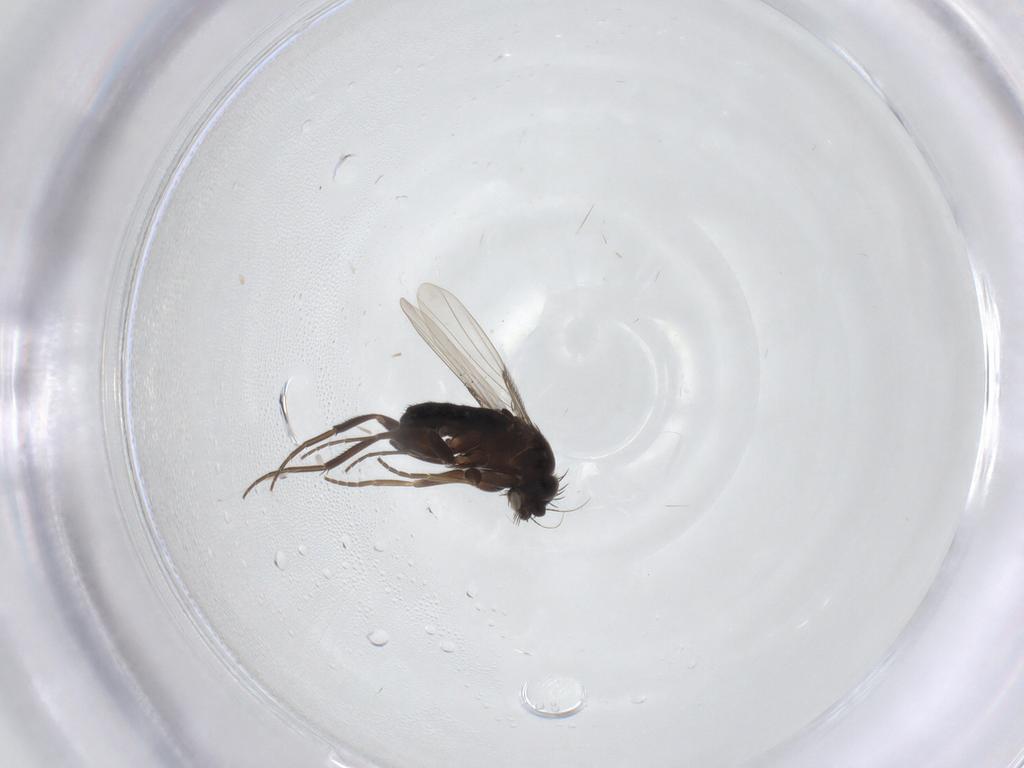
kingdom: Animalia
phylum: Arthropoda
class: Insecta
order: Diptera
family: Phoridae
